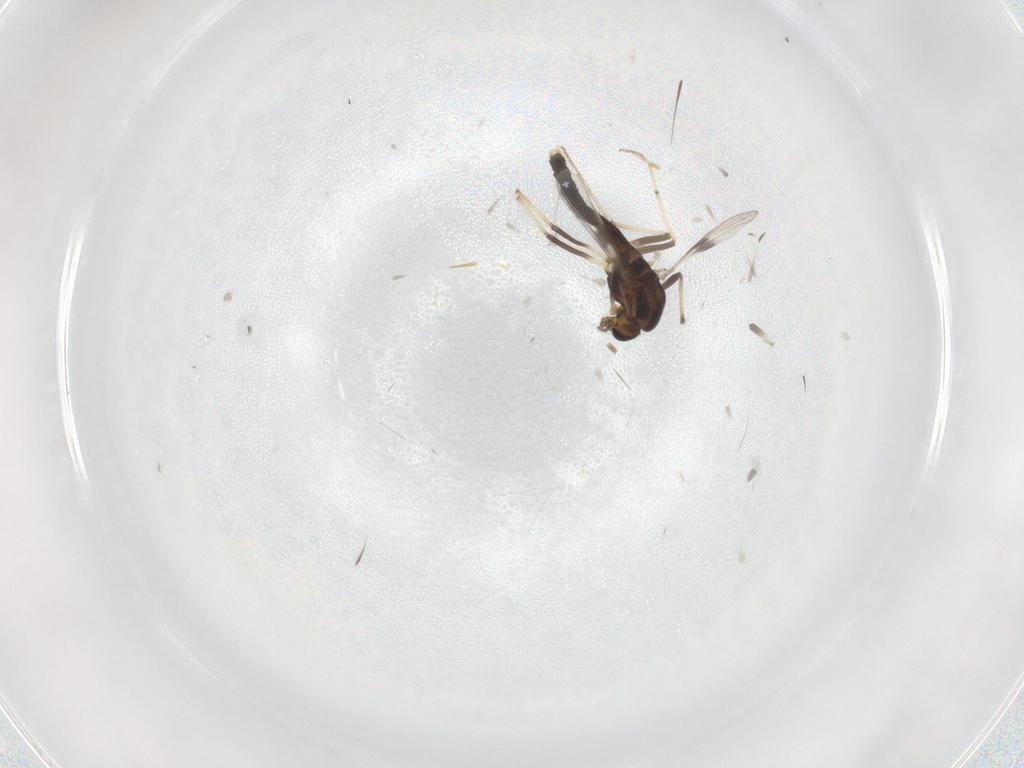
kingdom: Animalia
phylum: Arthropoda
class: Insecta
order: Diptera
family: Chironomidae
